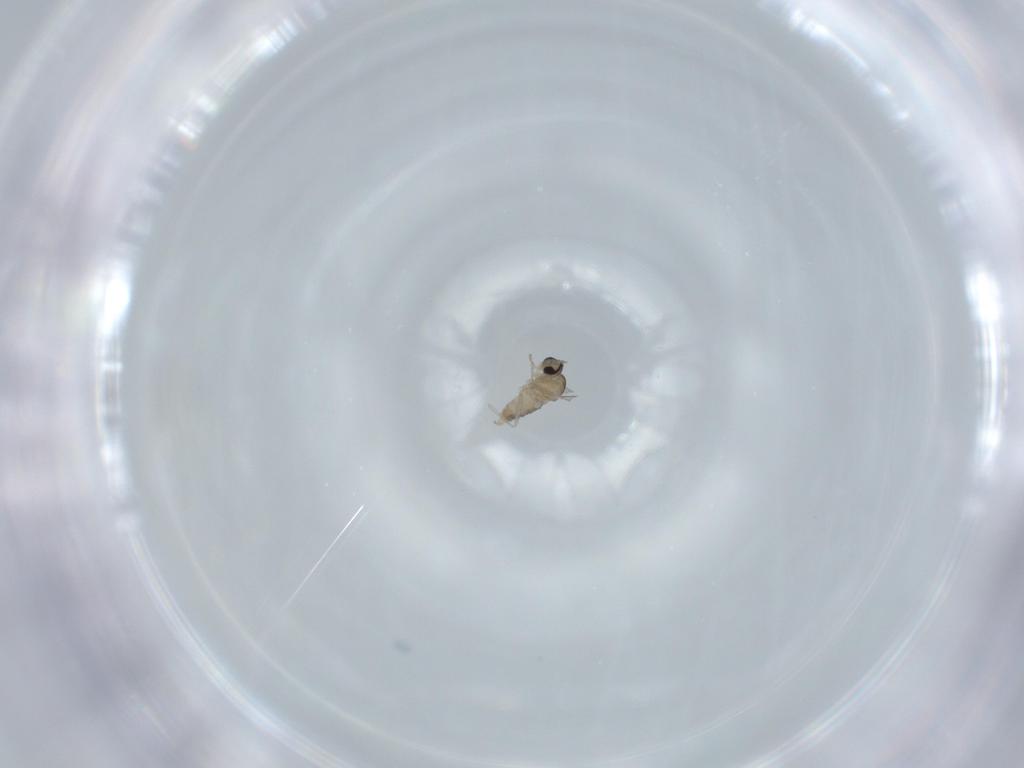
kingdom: Animalia
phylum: Arthropoda
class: Insecta
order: Diptera
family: Cecidomyiidae
